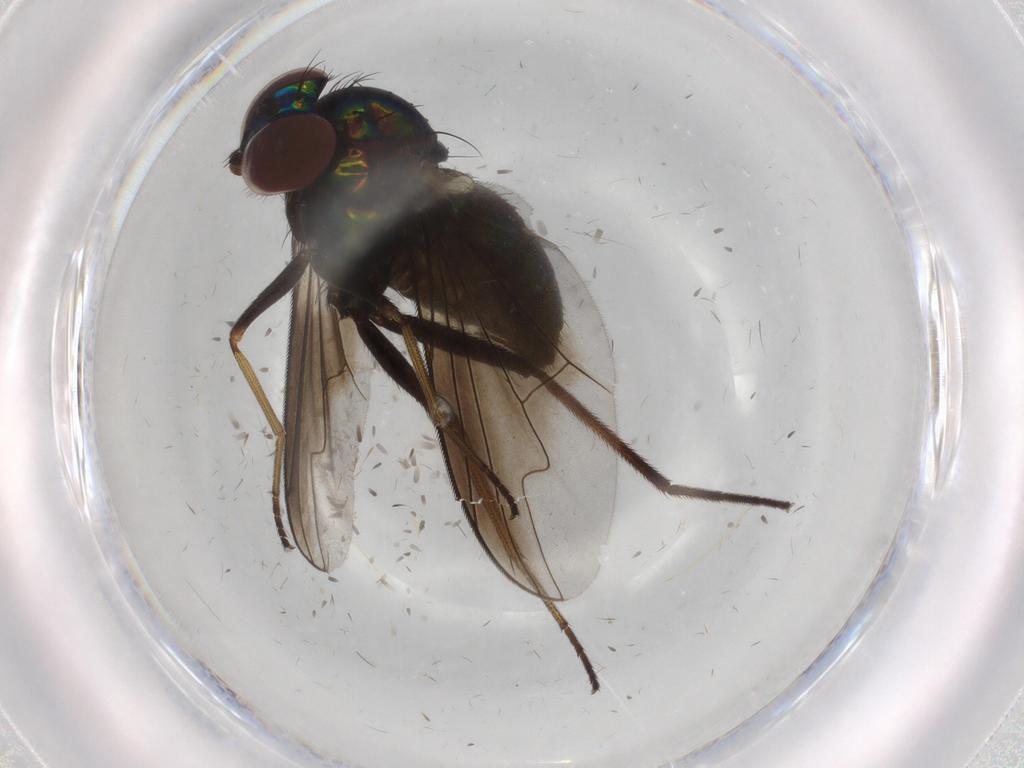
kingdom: Animalia
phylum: Arthropoda
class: Insecta
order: Diptera
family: Dolichopodidae
